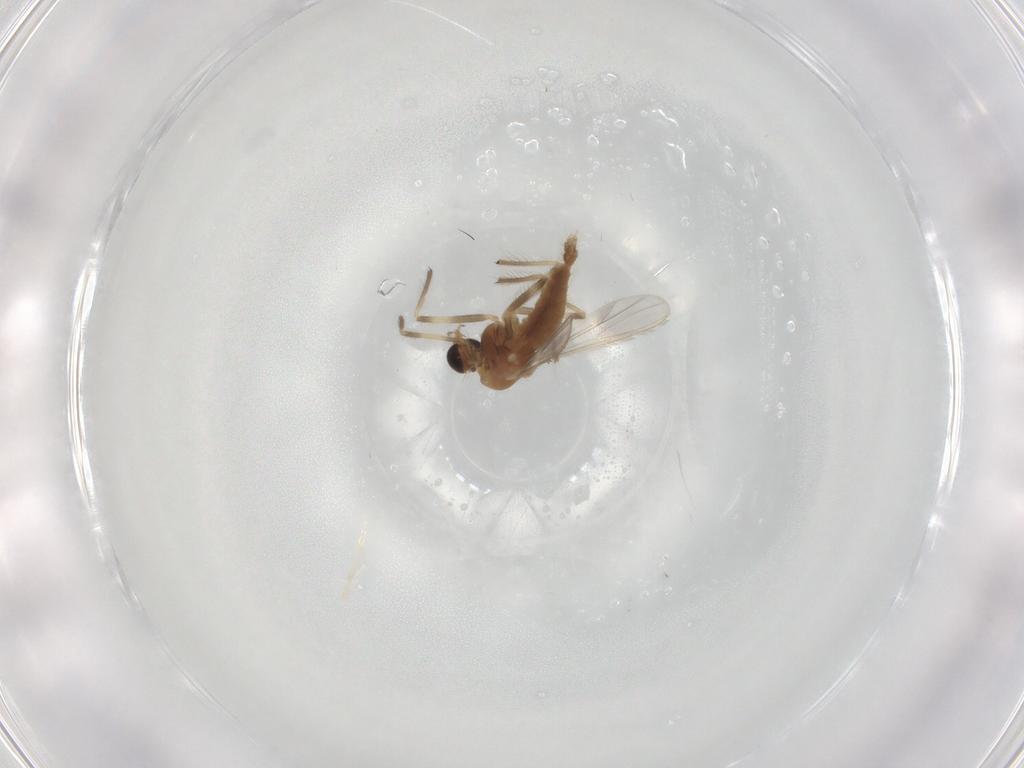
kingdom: Animalia
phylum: Arthropoda
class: Insecta
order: Diptera
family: Chironomidae
